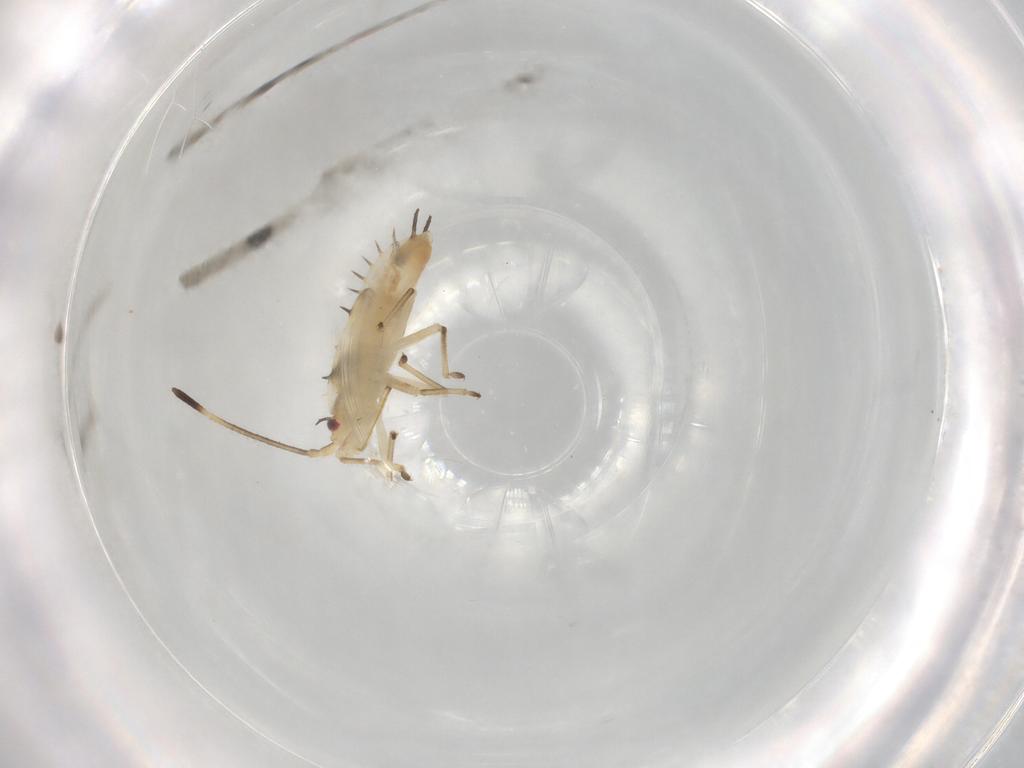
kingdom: Animalia
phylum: Arthropoda
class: Insecta
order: Hemiptera
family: Tingidae
